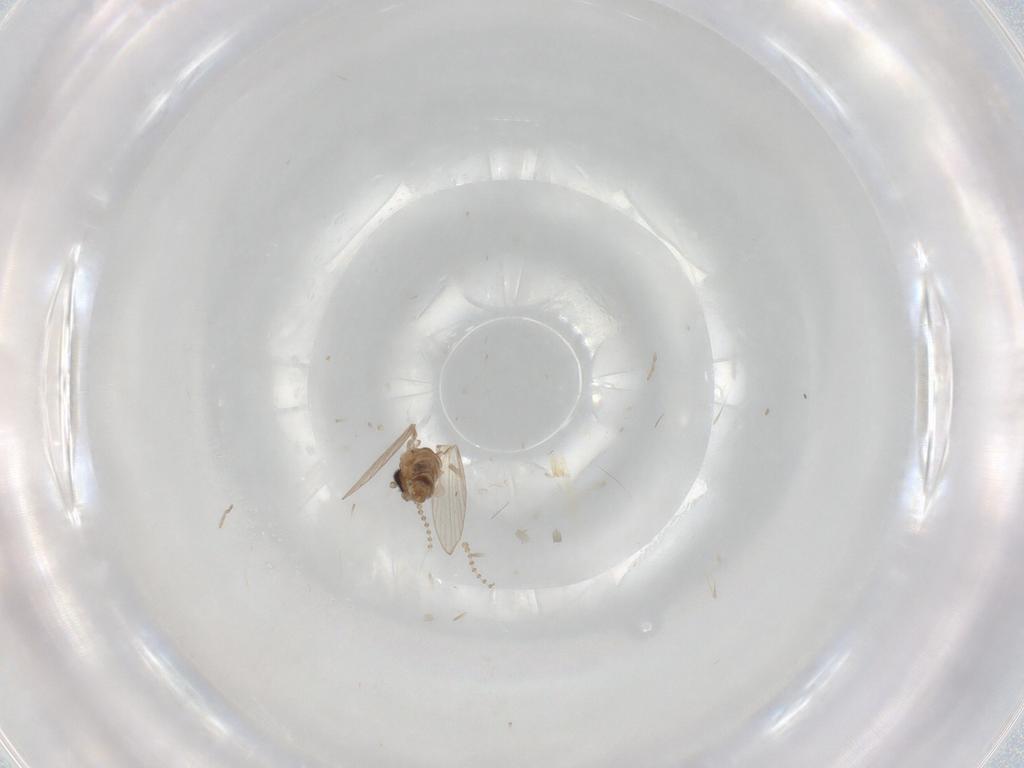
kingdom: Animalia
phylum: Arthropoda
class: Insecta
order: Diptera
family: Psychodidae
